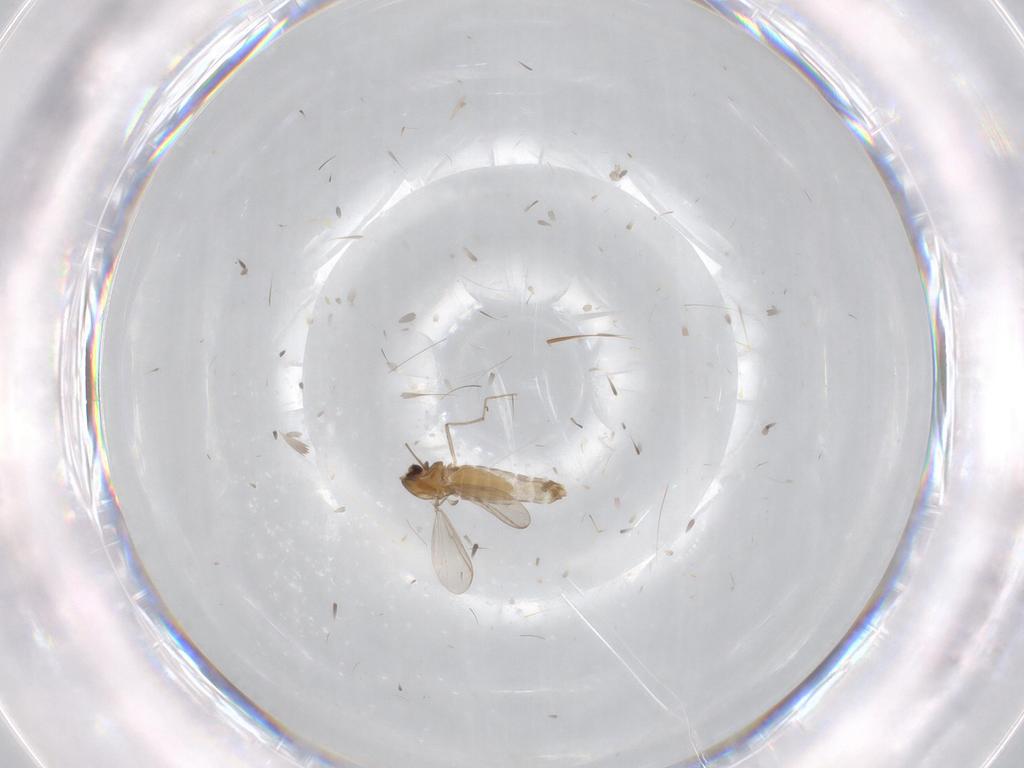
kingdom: Animalia
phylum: Arthropoda
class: Insecta
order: Diptera
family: Chironomidae
